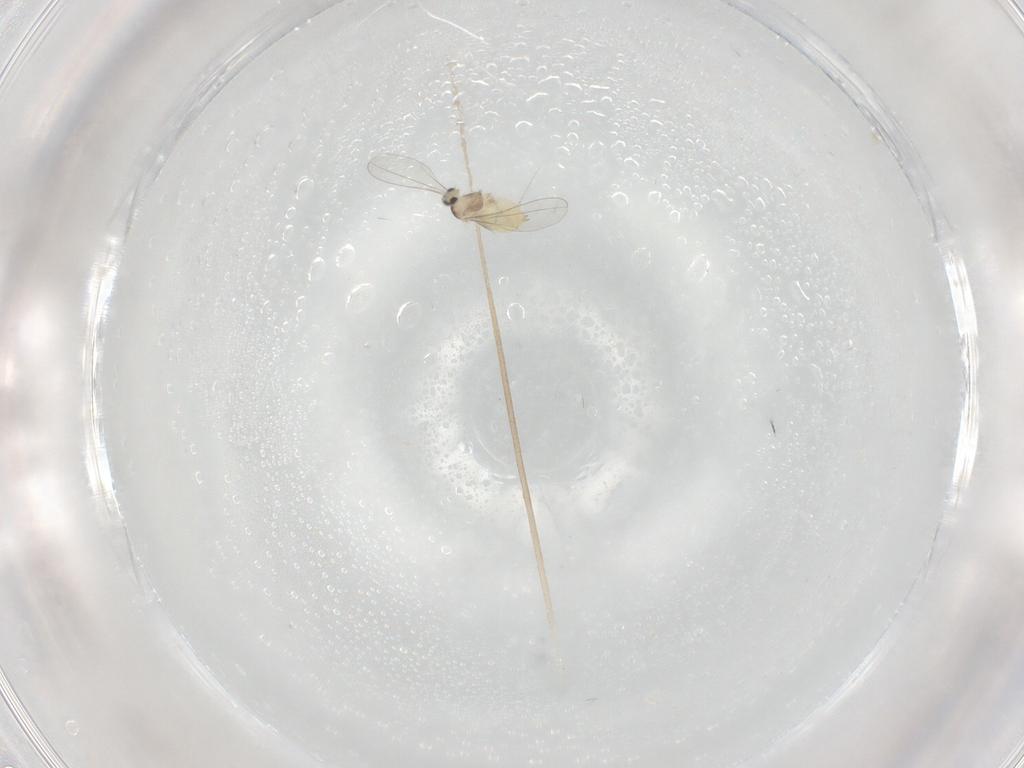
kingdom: Animalia
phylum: Arthropoda
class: Insecta
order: Diptera
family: Cecidomyiidae
